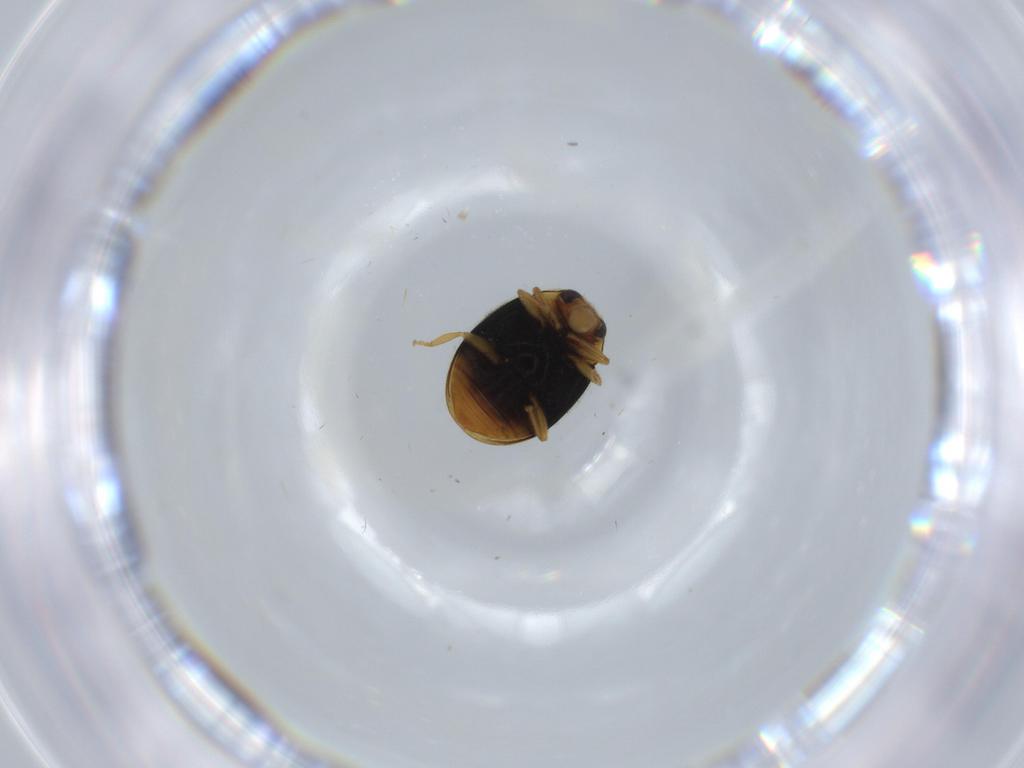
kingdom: Animalia
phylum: Arthropoda
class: Insecta
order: Coleoptera
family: Coccinellidae
